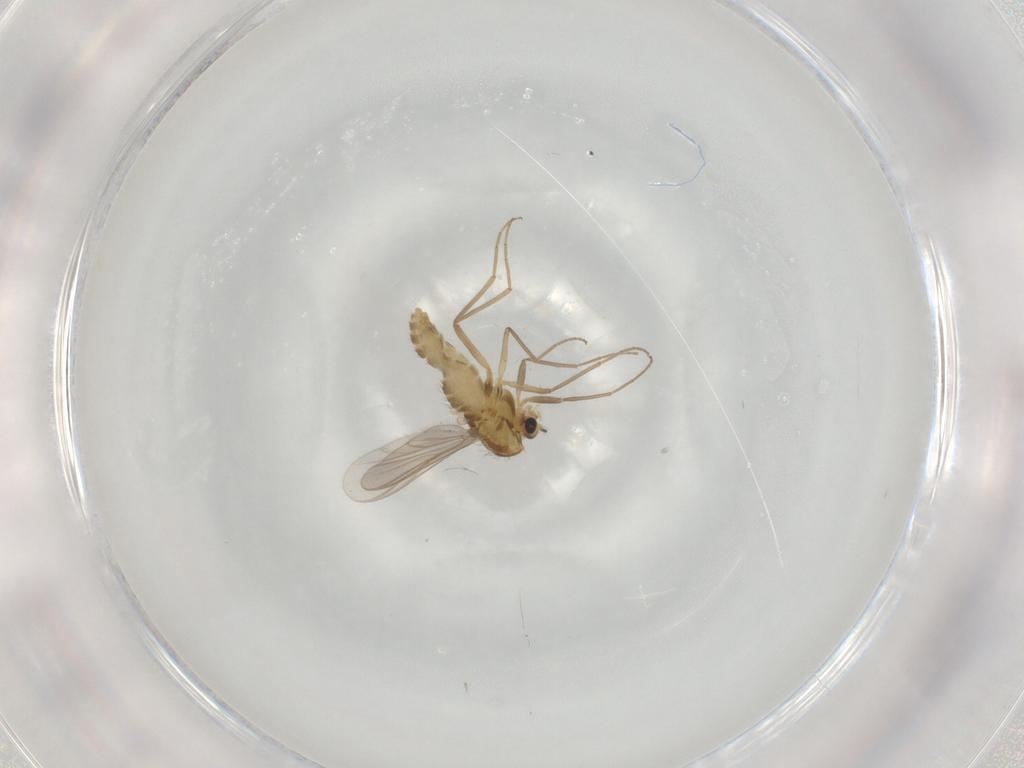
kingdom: Animalia
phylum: Arthropoda
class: Insecta
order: Diptera
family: Chironomidae
